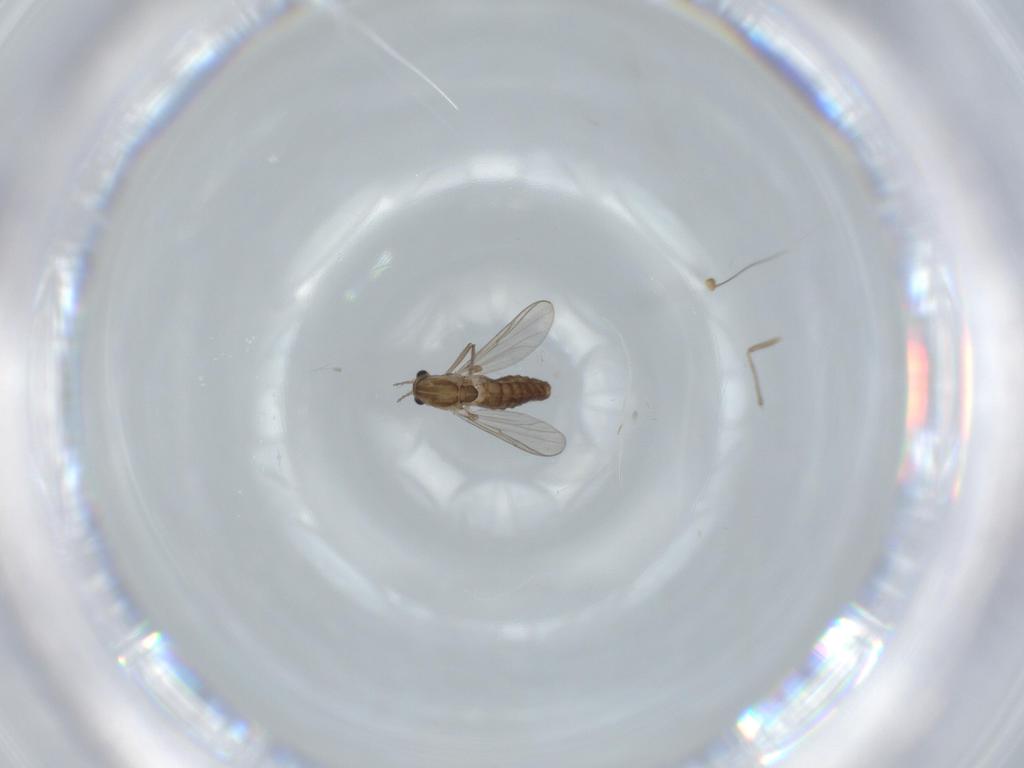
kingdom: Animalia
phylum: Arthropoda
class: Insecta
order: Diptera
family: Chironomidae
